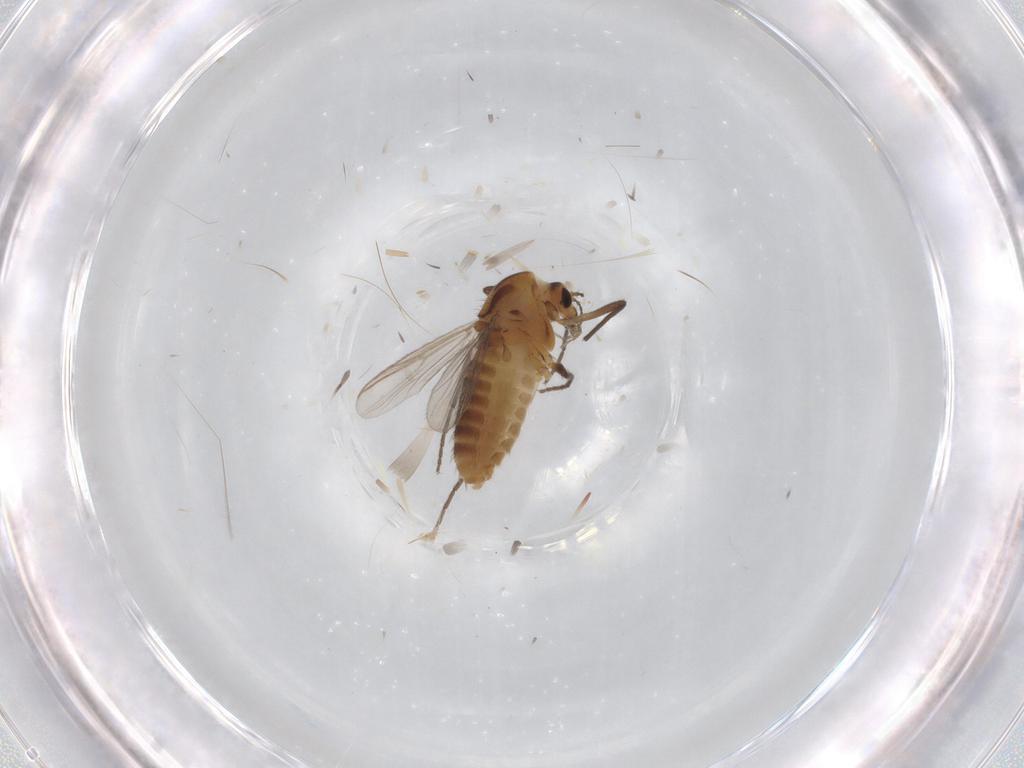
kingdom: Animalia
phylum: Arthropoda
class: Insecta
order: Diptera
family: Chironomidae
